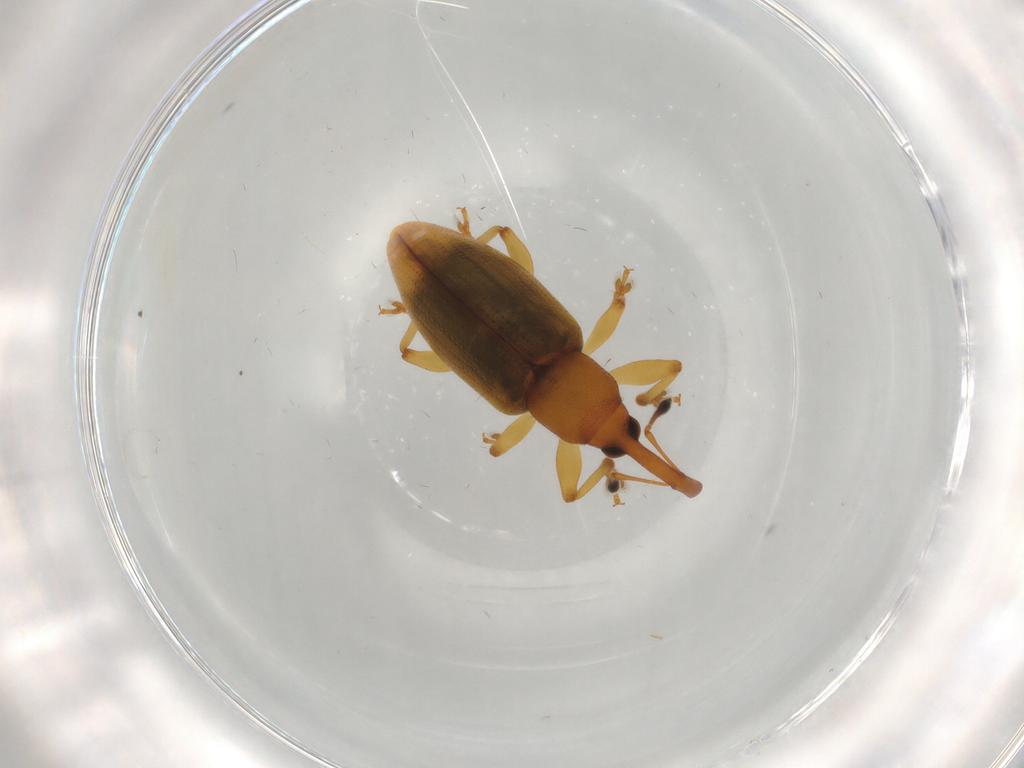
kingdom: Animalia
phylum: Arthropoda
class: Insecta
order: Coleoptera
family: Curculionidae
